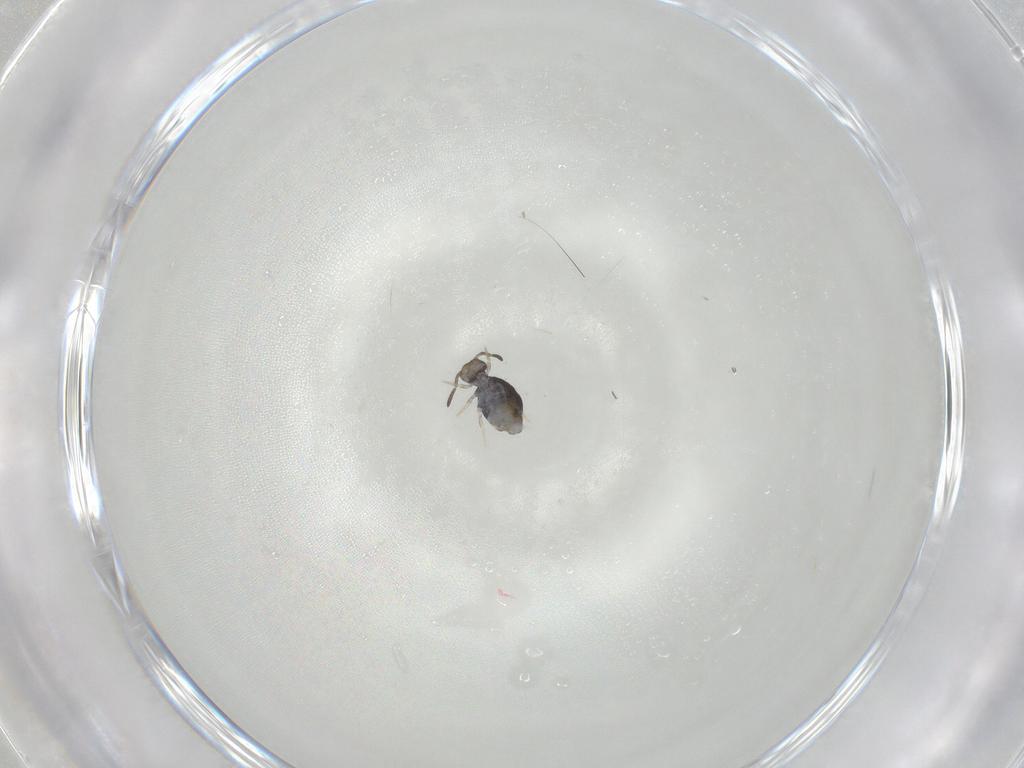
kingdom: Animalia
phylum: Arthropoda
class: Collembola
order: Symphypleona
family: Katiannidae
